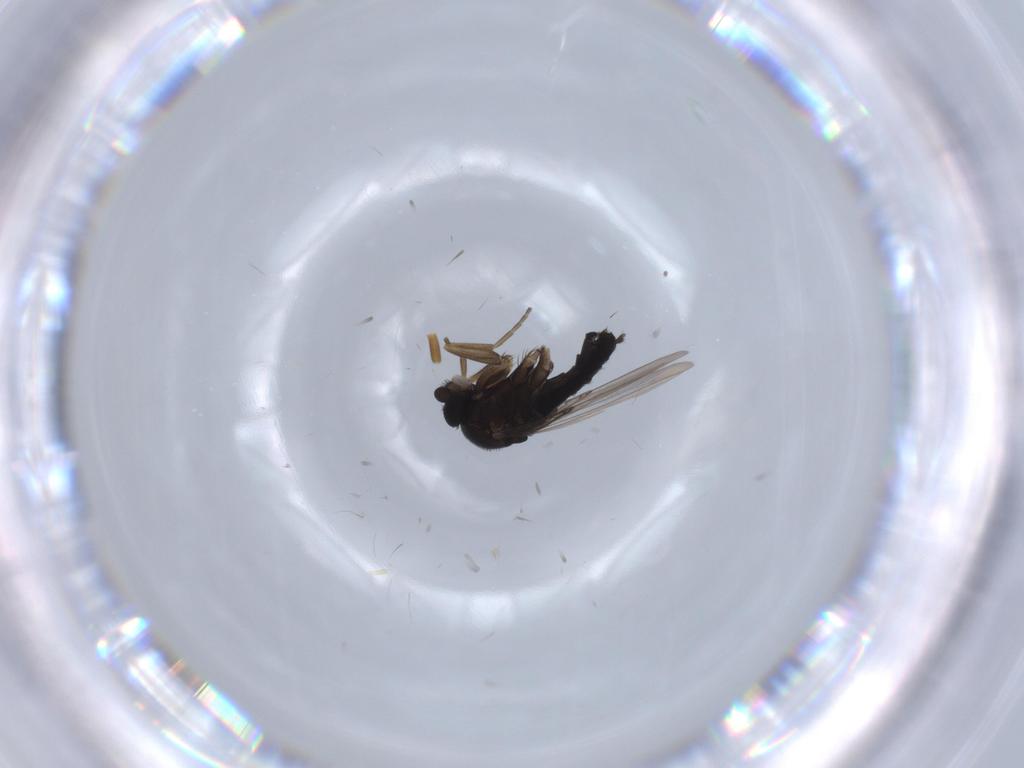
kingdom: Animalia
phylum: Arthropoda
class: Insecta
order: Diptera
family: Phoridae
